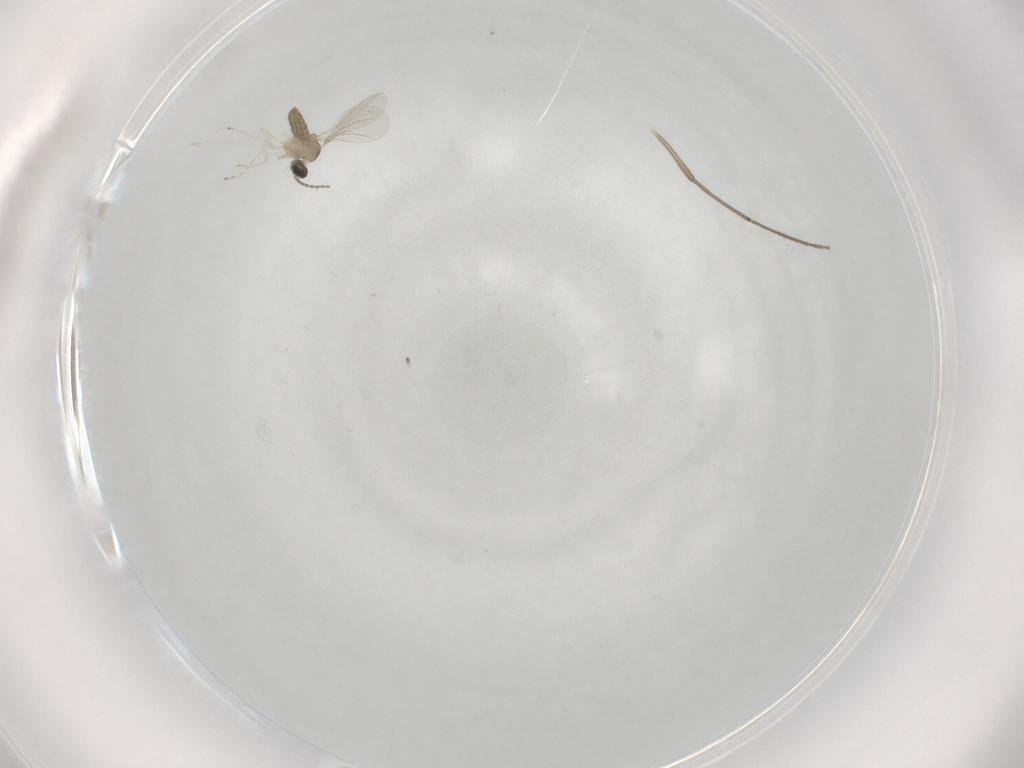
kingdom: Animalia
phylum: Arthropoda
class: Insecta
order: Diptera
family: Cecidomyiidae
